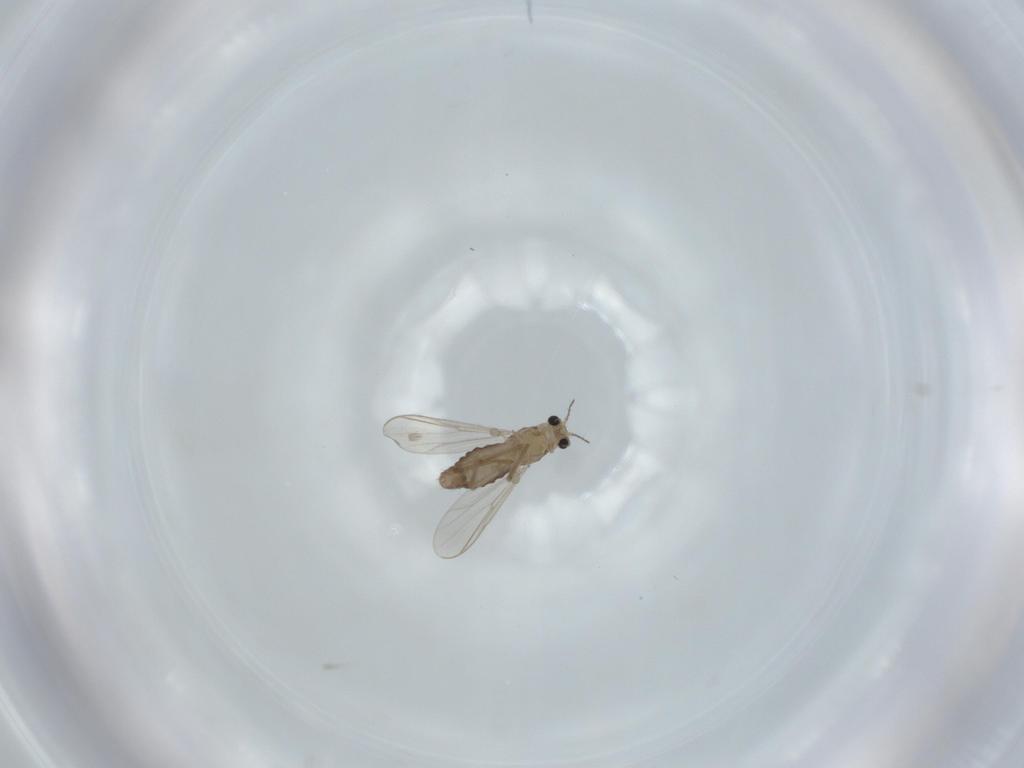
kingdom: Animalia
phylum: Arthropoda
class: Insecta
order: Diptera
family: Chironomidae
